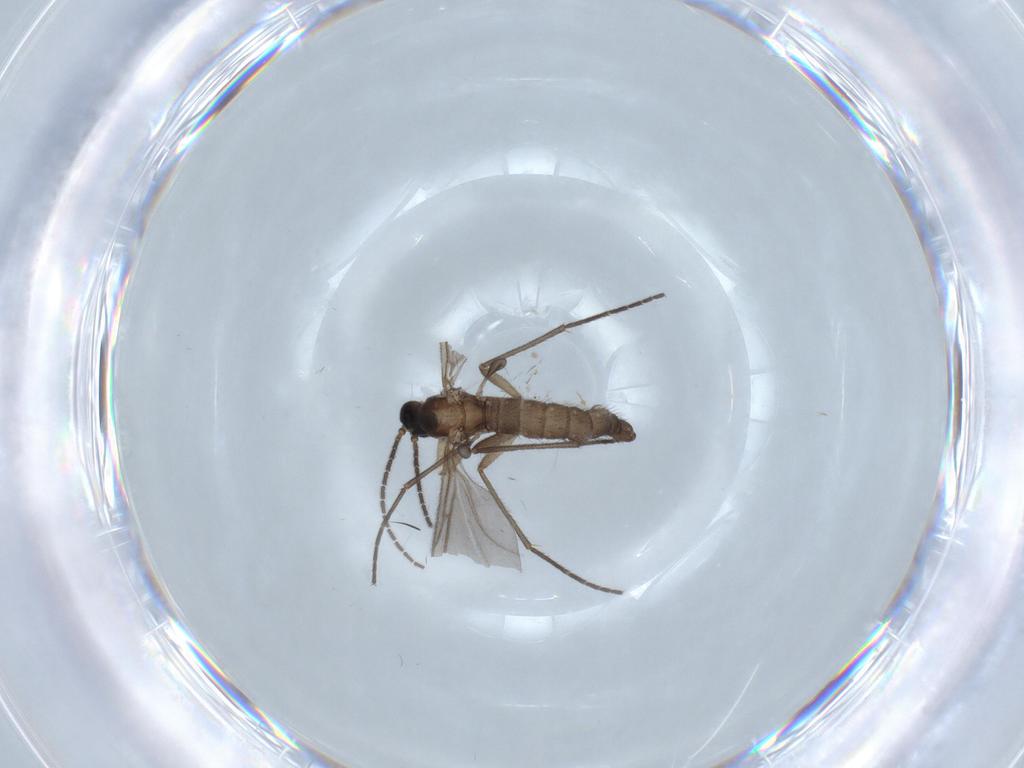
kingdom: Animalia
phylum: Arthropoda
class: Insecta
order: Diptera
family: Sciaridae
